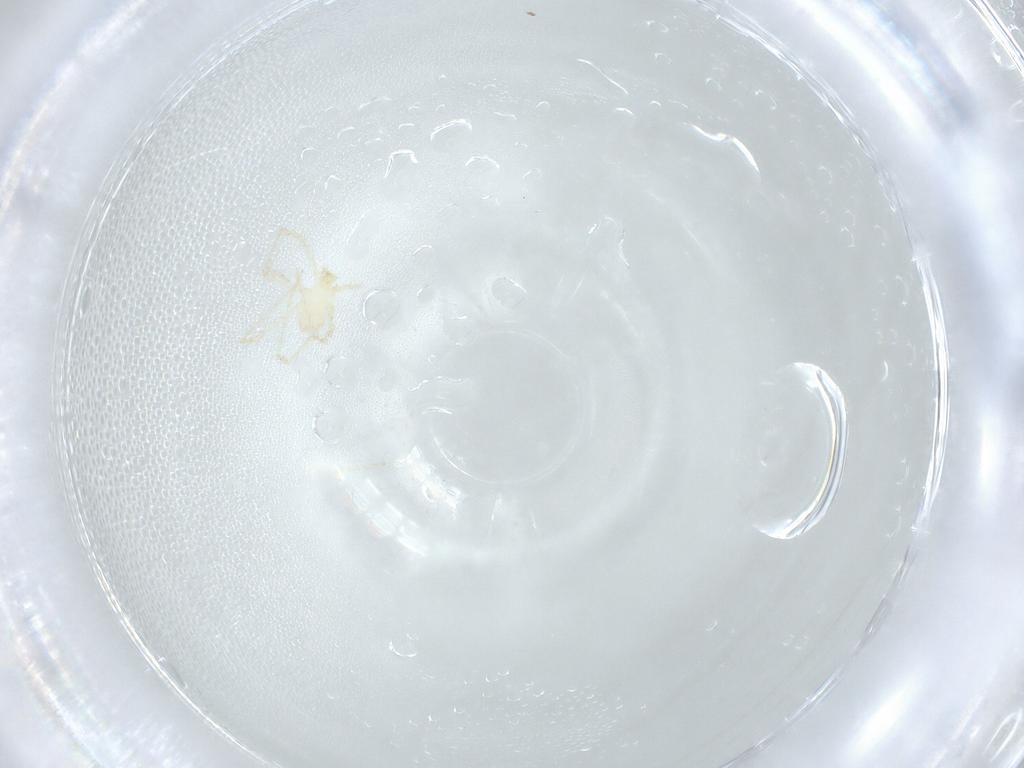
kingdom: Animalia
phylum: Arthropoda
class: Arachnida
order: Trombidiformes
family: Erythraeidae
